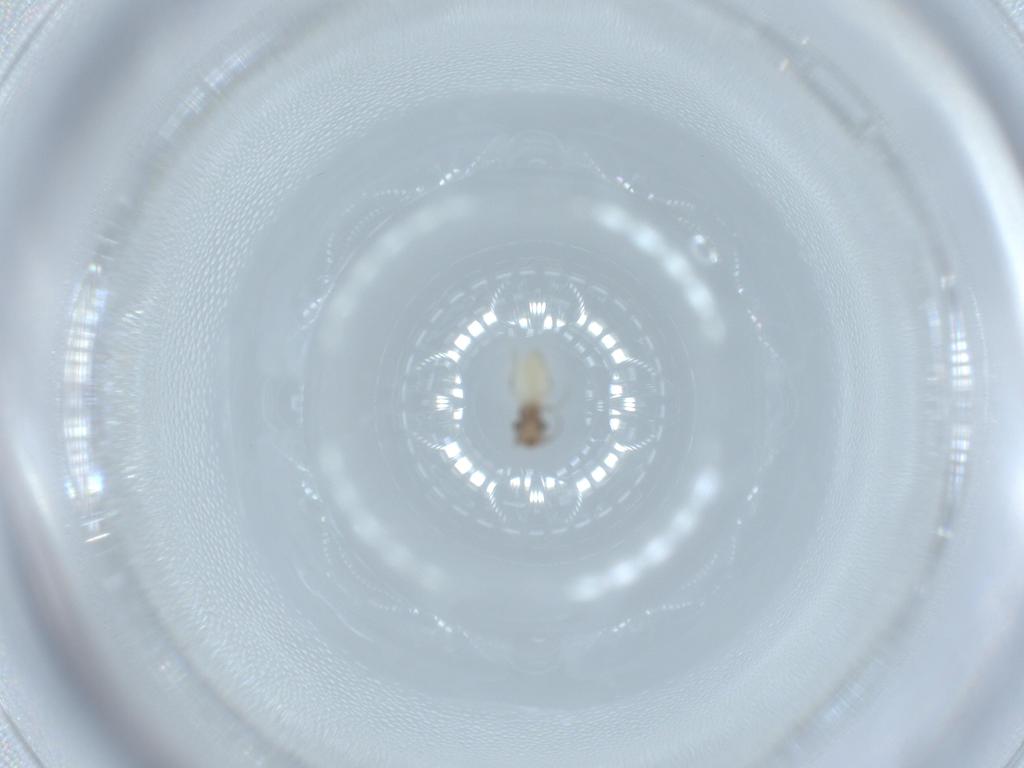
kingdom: Animalia
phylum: Arthropoda
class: Insecta
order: Psocodea
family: Lepidopsocidae
